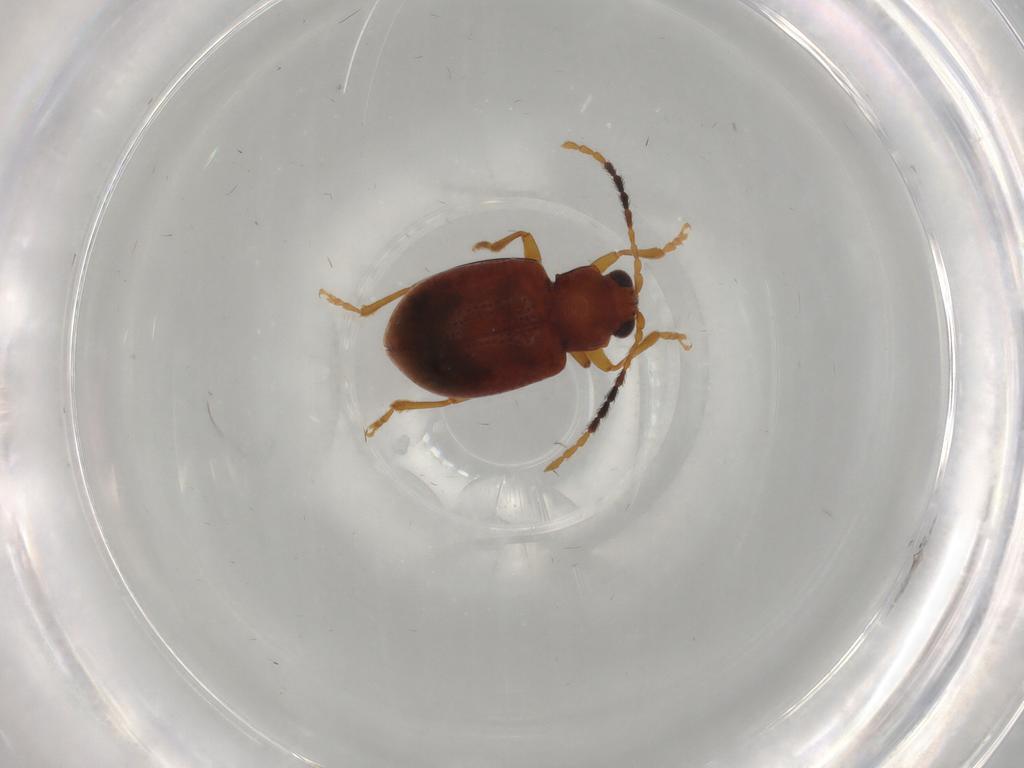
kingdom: Animalia
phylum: Arthropoda
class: Insecta
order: Coleoptera
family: Chrysomelidae
